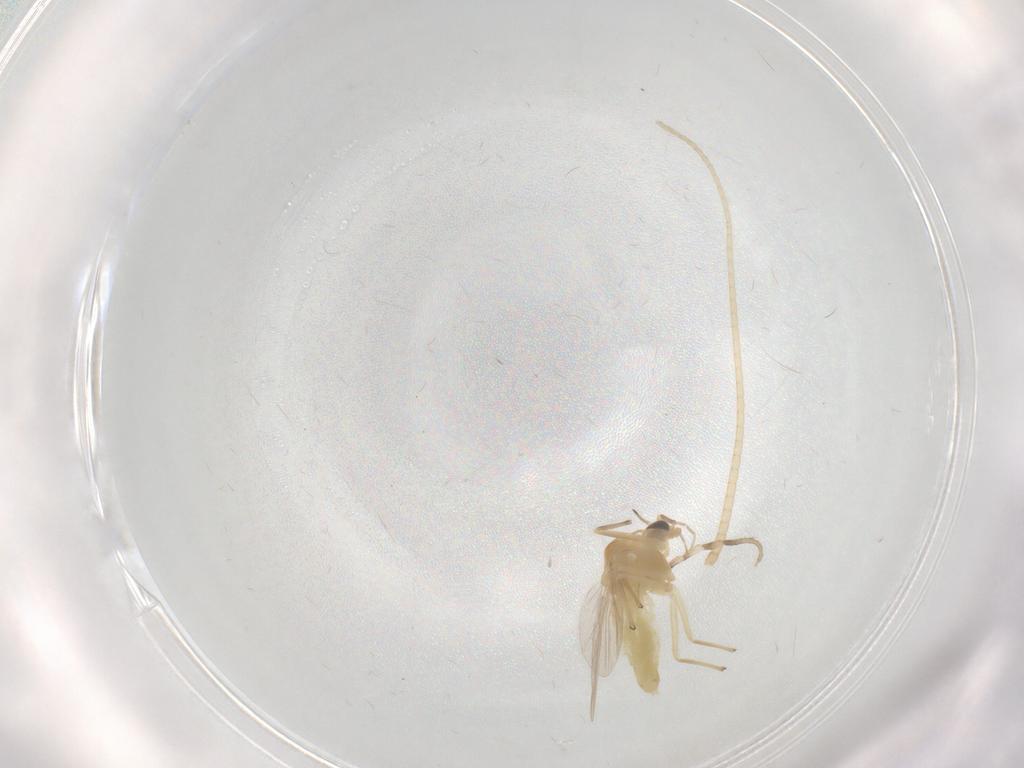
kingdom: Animalia
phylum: Arthropoda
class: Insecta
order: Diptera
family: Chironomidae
